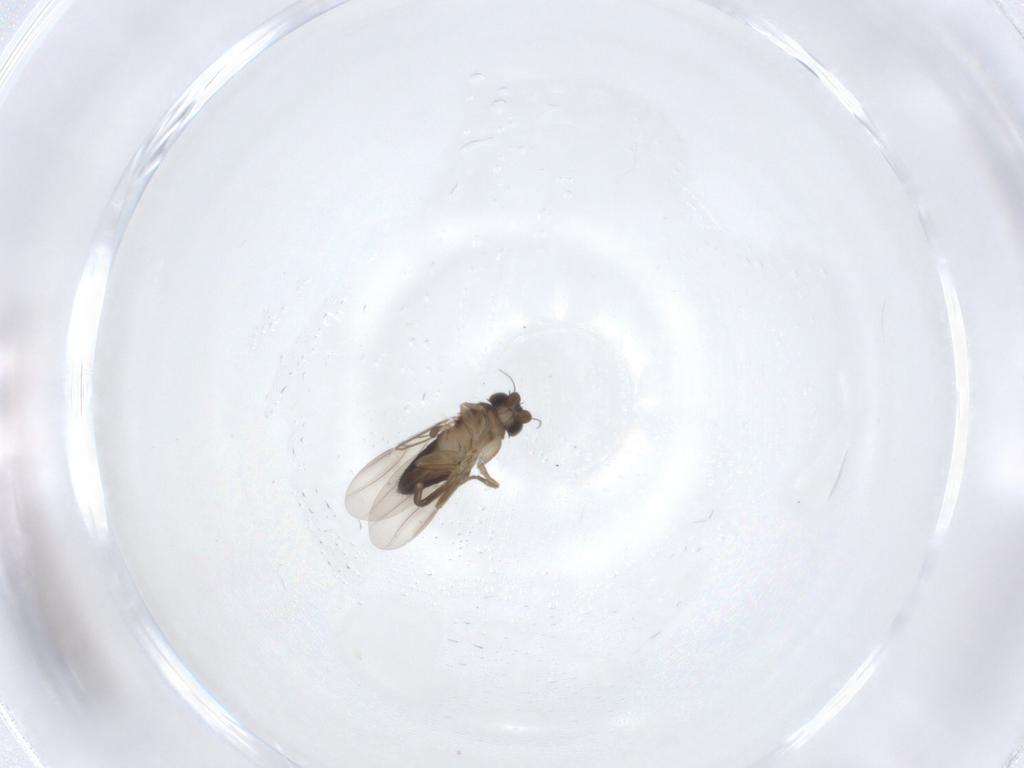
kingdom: Animalia
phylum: Arthropoda
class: Insecta
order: Diptera
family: Phoridae
